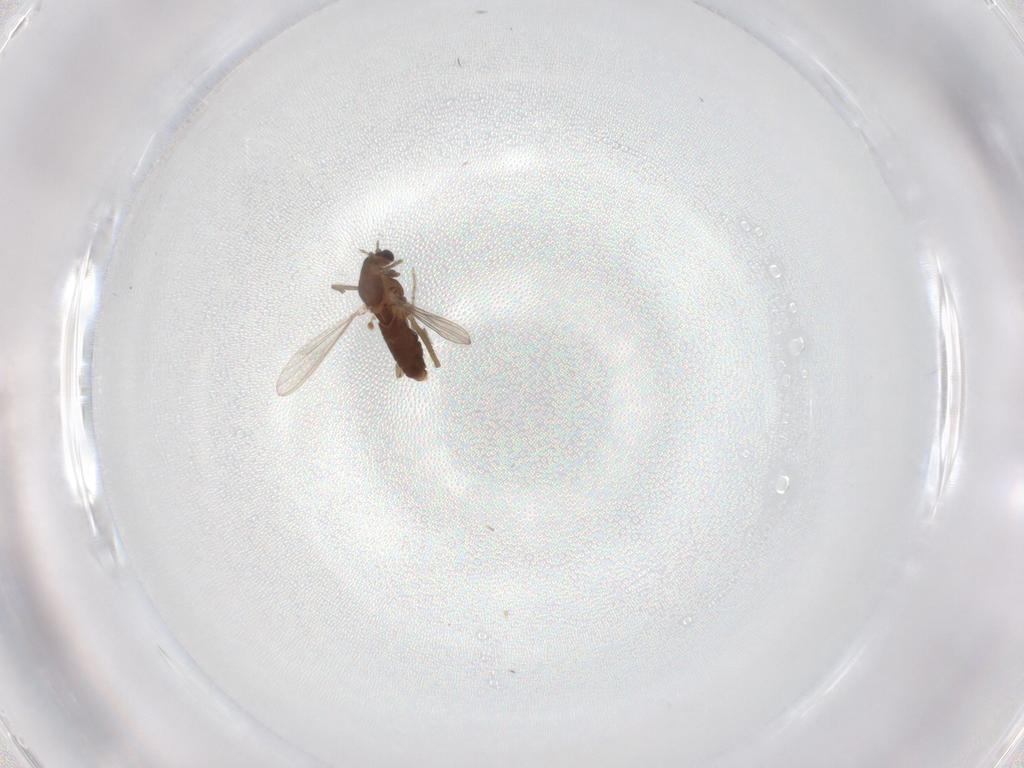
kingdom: Animalia
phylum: Arthropoda
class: Insecta
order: Diptera
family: Chironomidae
